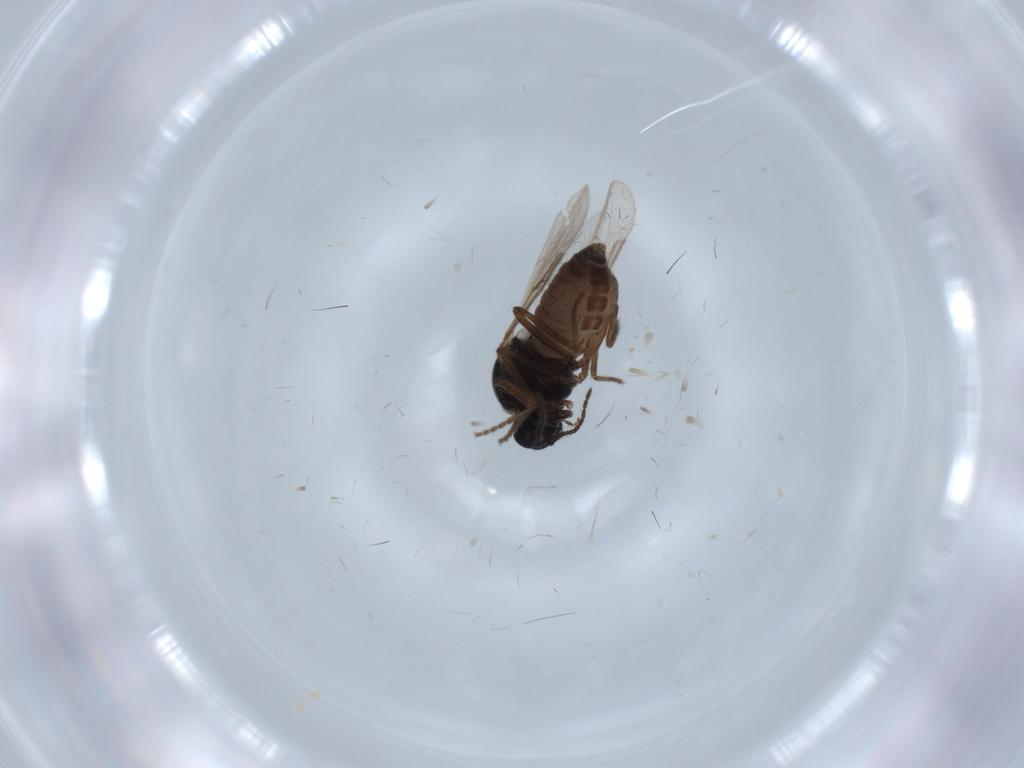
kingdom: Animalia
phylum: Arthropoda
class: Insecta
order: Diptera
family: Ceratopogonidae
